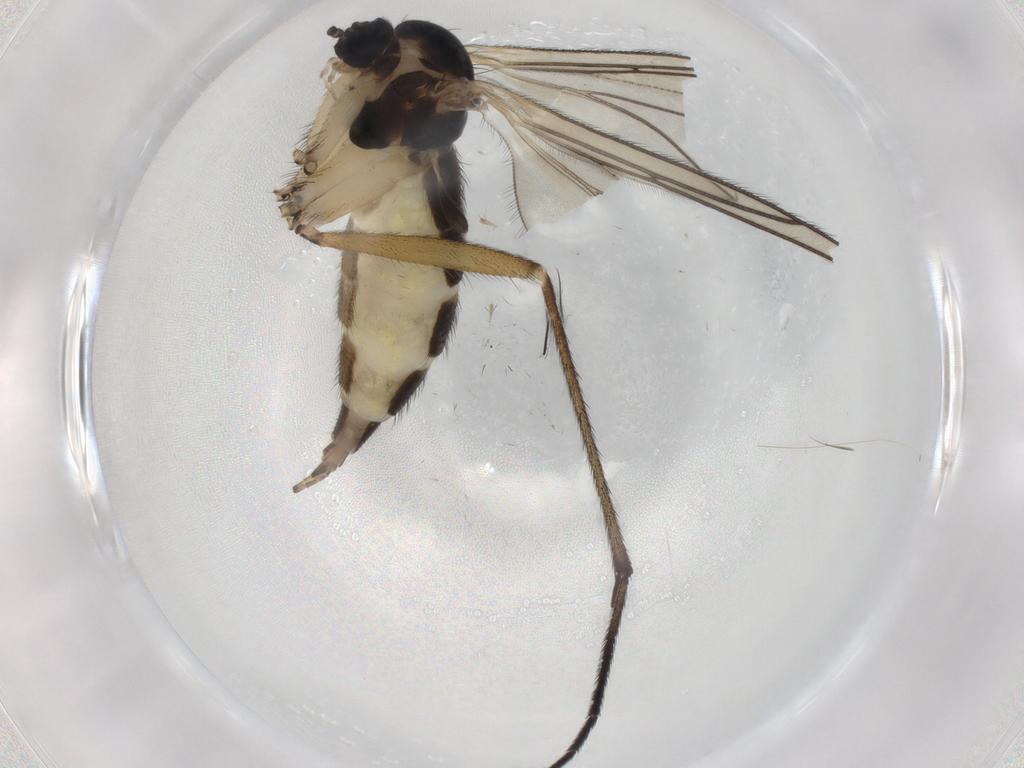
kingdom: Animalia
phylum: Arthropoda
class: Insecta
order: Diptera
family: Sciaridae
